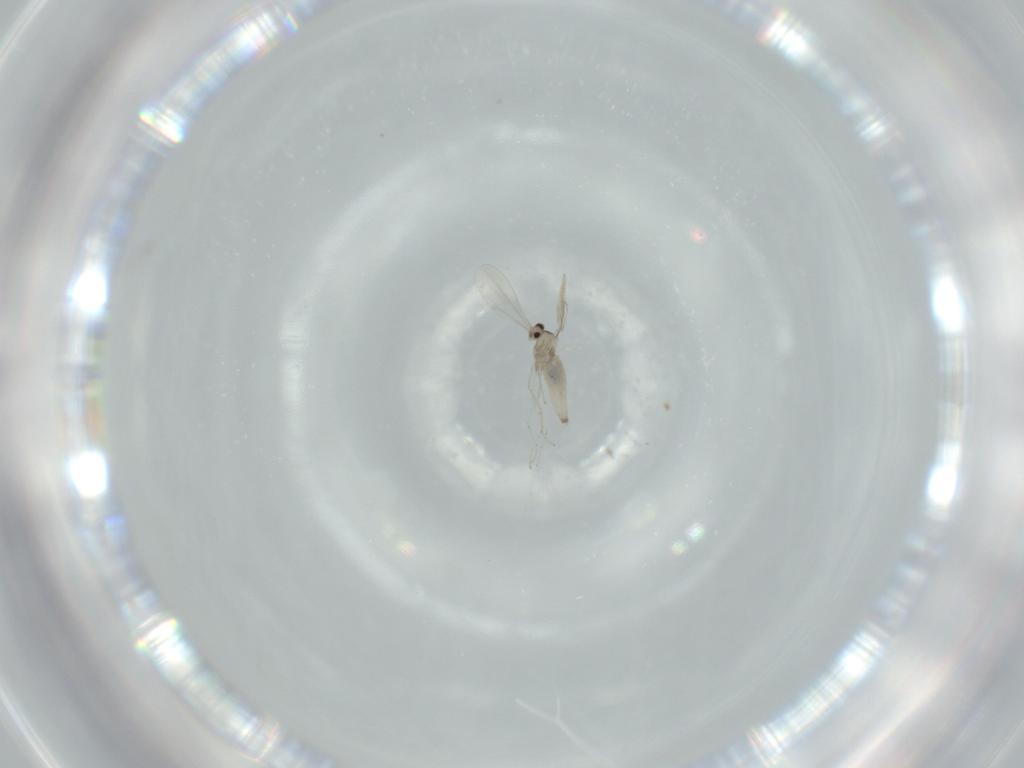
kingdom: Animalia
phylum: Arthropoda
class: Insecta
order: Diptera
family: Cecidomyiidae
